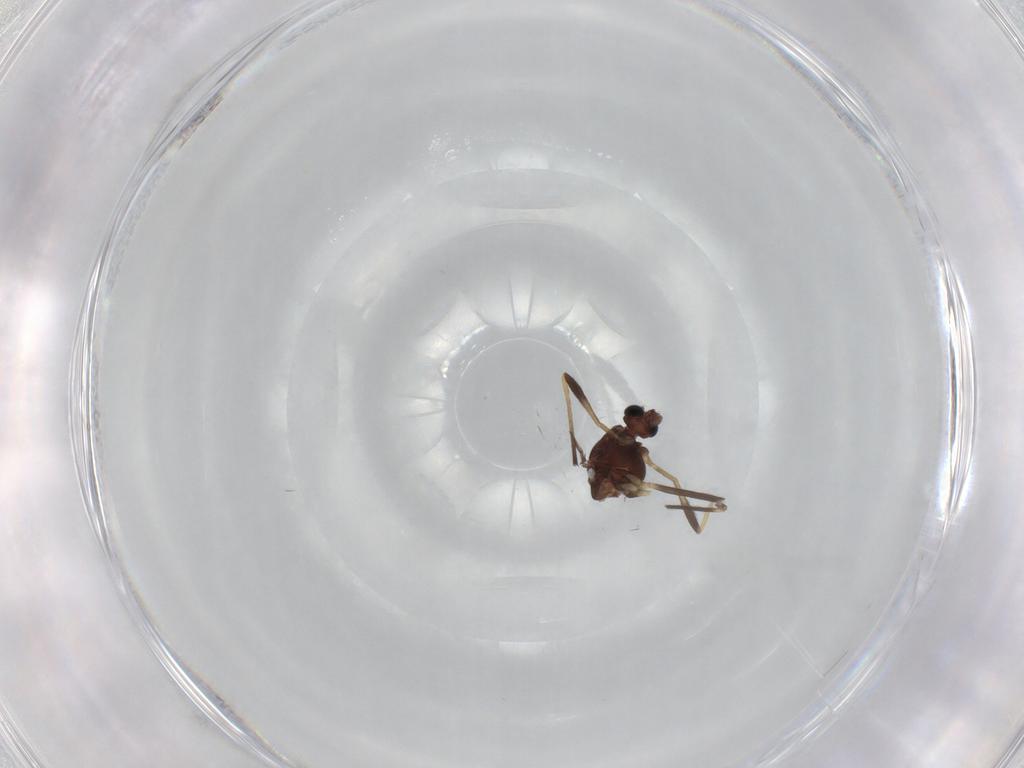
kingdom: Animalia
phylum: Arthropoda
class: Insecta
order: Diptera
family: Chironomidae
